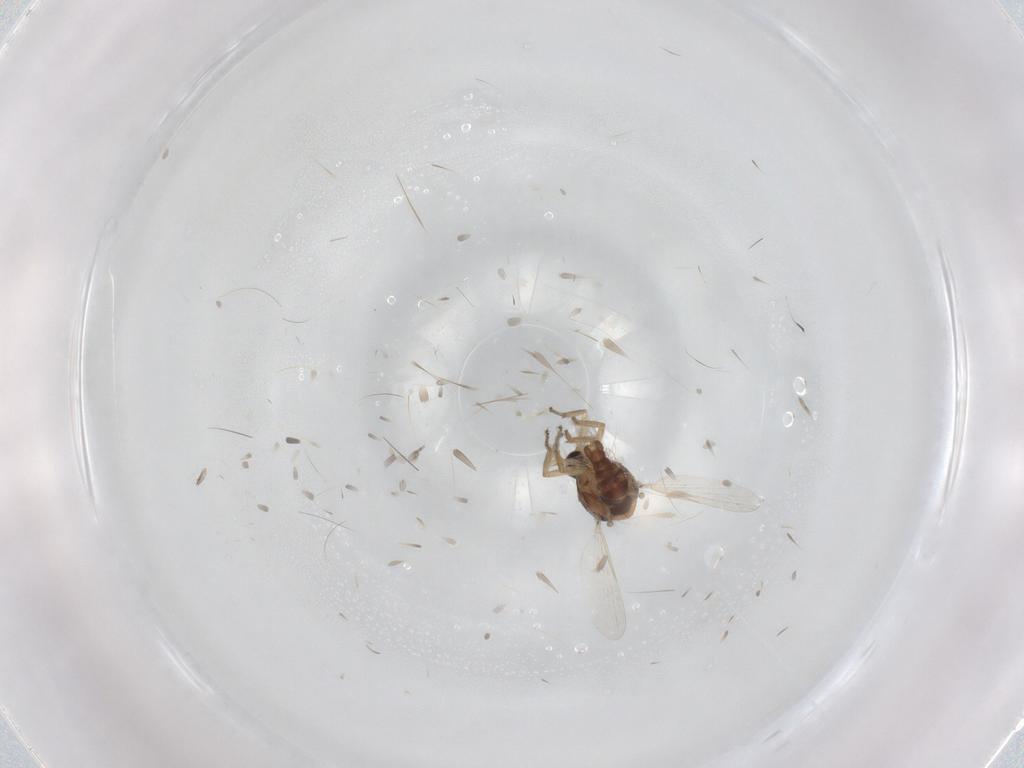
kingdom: Animalia
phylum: Arthropoda
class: Insecta
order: Diptera
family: Ceratopogonidae
